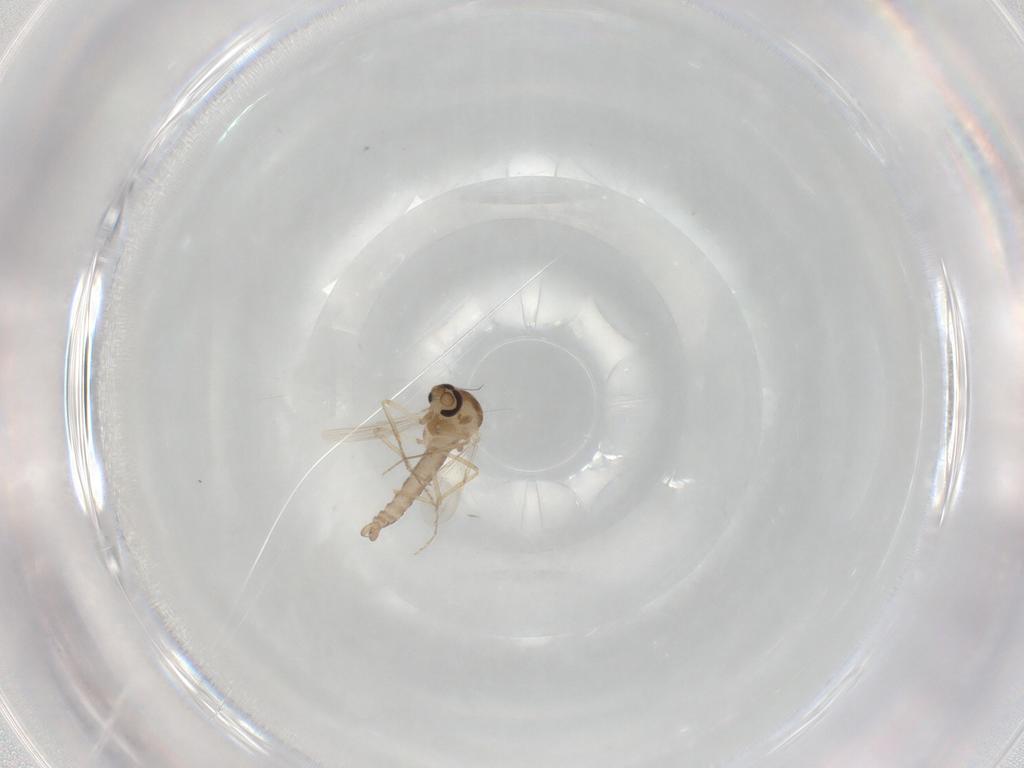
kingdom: Animalia
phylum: Arthropoda
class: Insecta
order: Diptera
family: Ceratopogonidae
